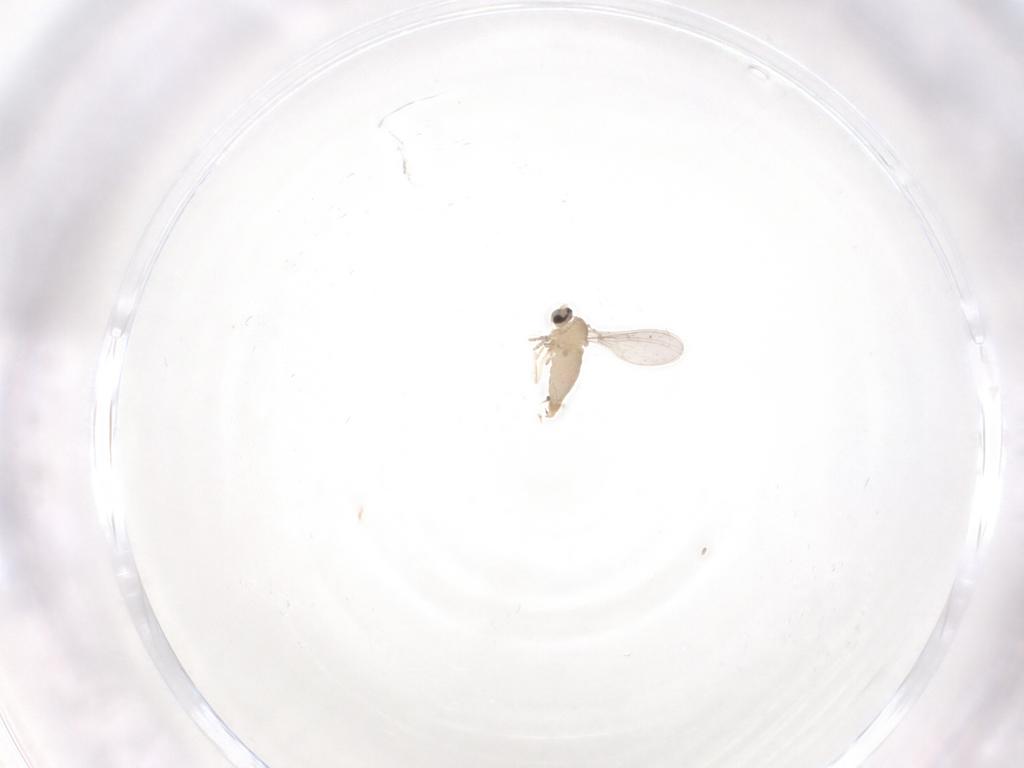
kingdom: Animalia
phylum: Arthropoda
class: Insecta
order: Diptera
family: Cecidomyiidae
